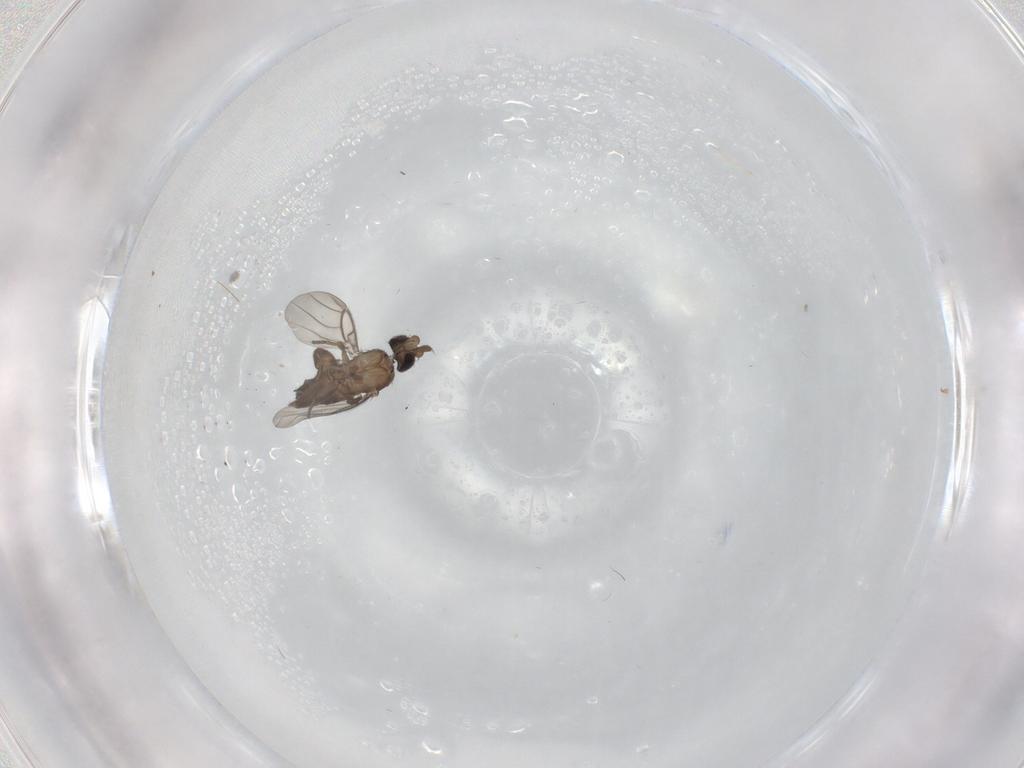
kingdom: Animalia
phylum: Arthropoda
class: Insecta
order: Diptera
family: Phoridae
